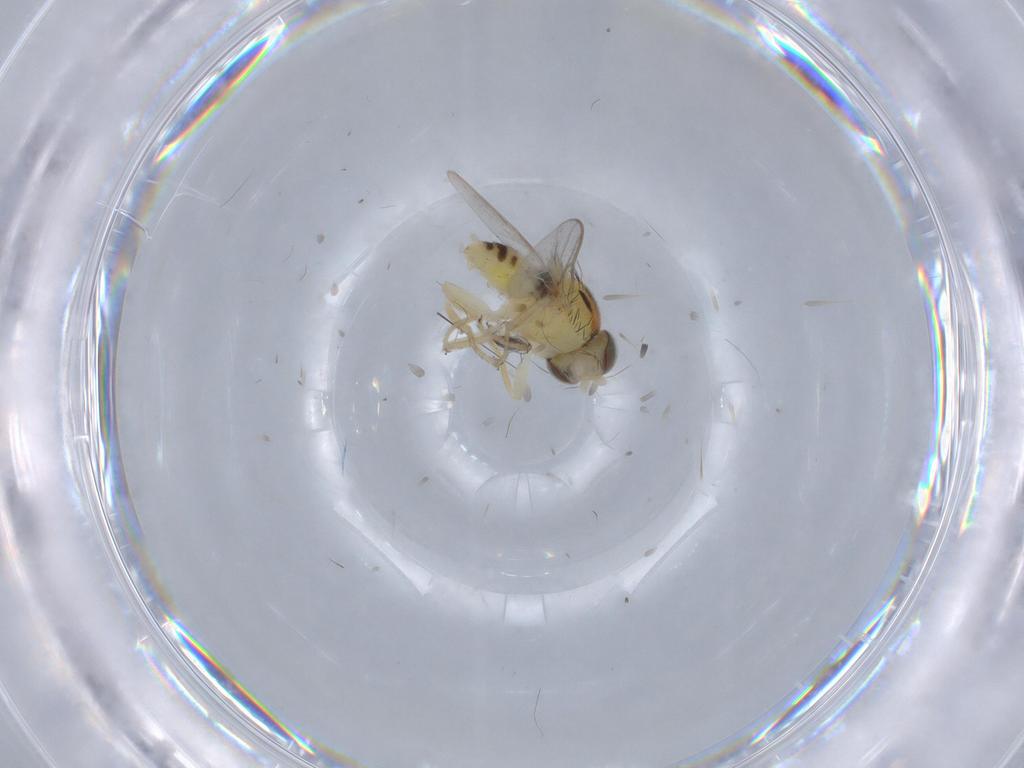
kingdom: Animalia
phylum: Arthropoda
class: Insecta
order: Diptera
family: Chloropidae
